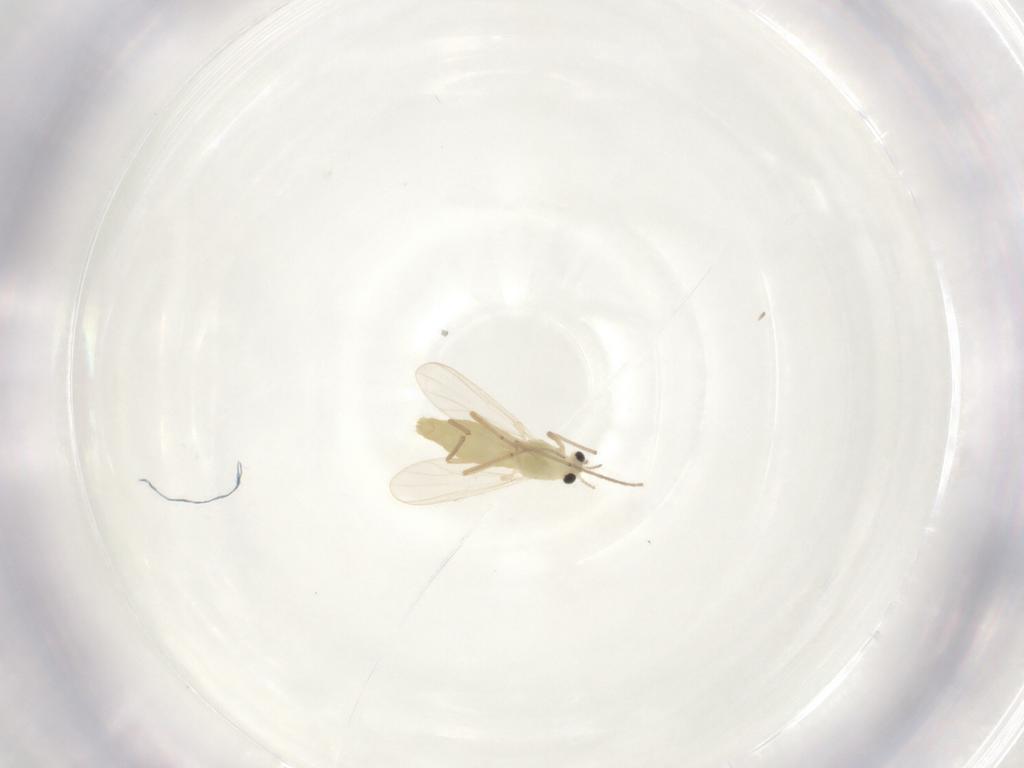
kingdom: Animalia
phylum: Arthropoda
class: Insecta
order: Diptera
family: Chironomidae
